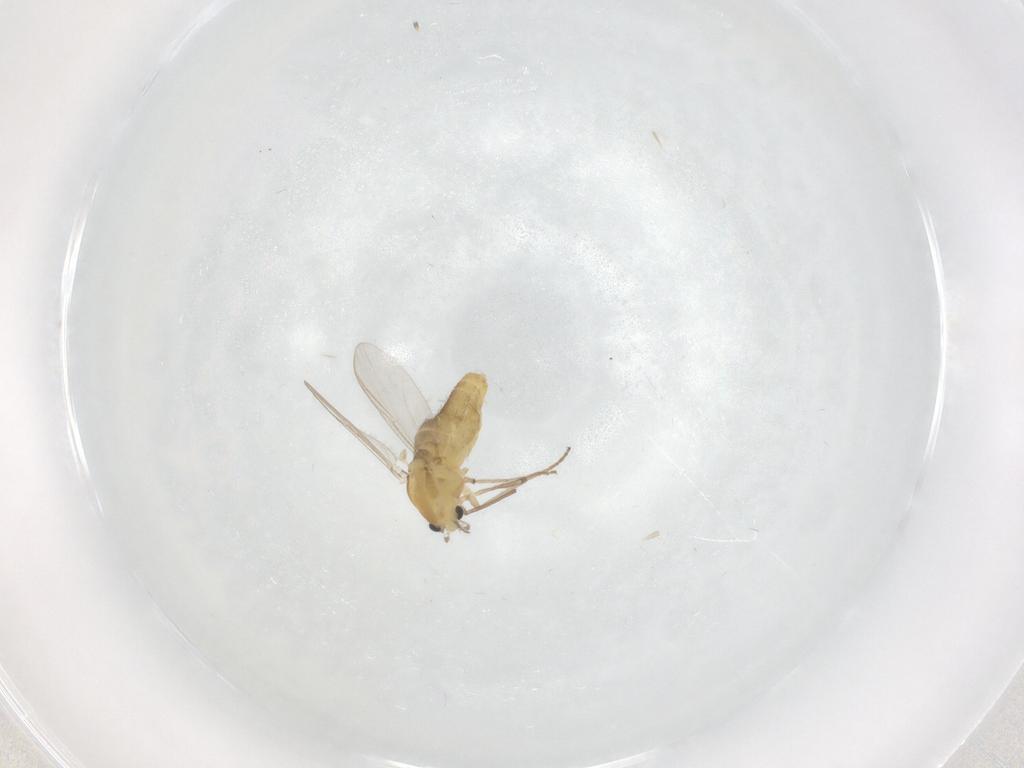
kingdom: Animalia
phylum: Arthropoda
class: Insecta
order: Diptera
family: Chironomidae
